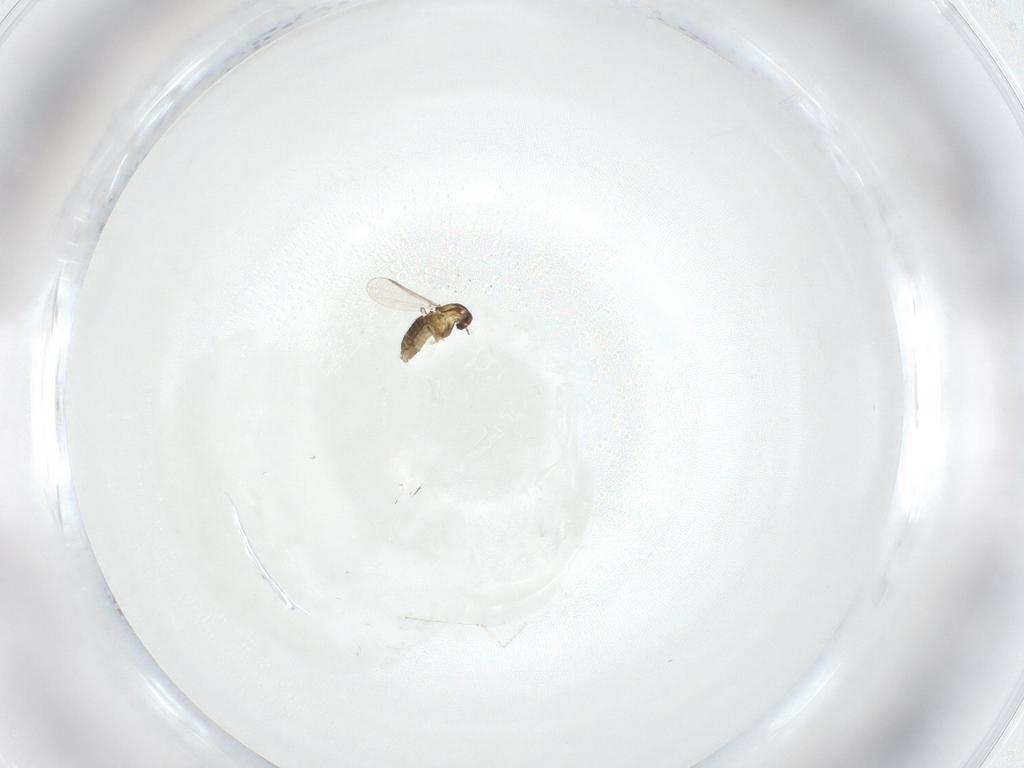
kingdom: Animalia
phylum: Arthropoda
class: Insecta
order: Diptera
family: Chironomidae
